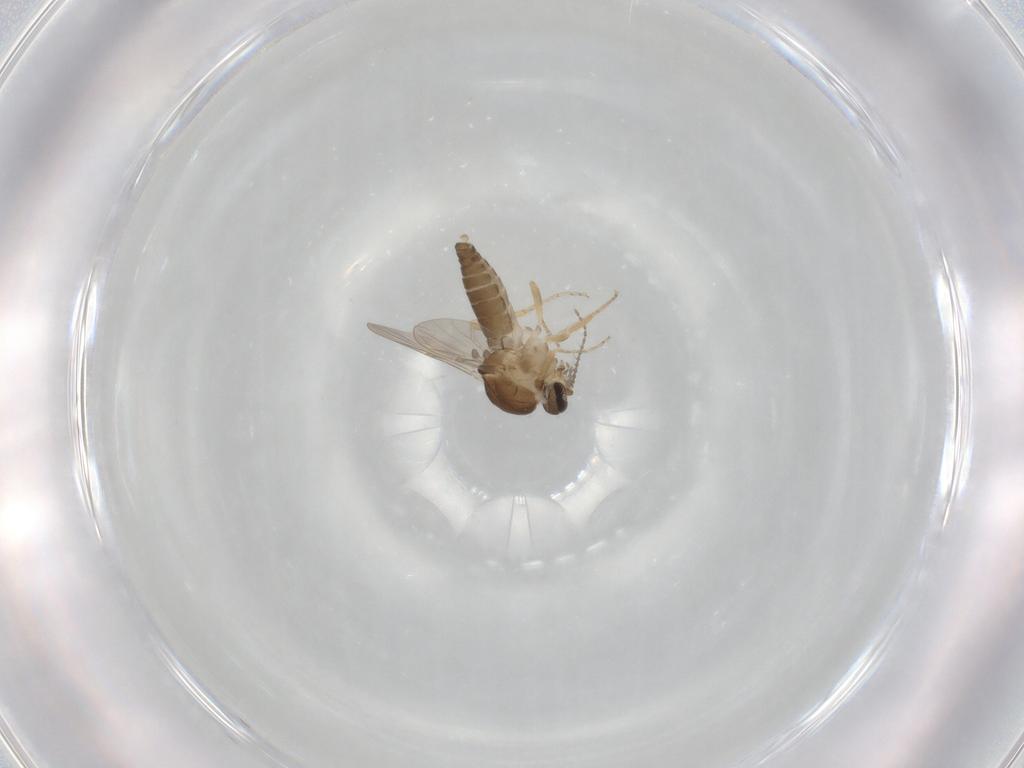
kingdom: Animalia
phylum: Arthropoda
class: Insecta
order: Diptera
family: Ceratopogonidae
